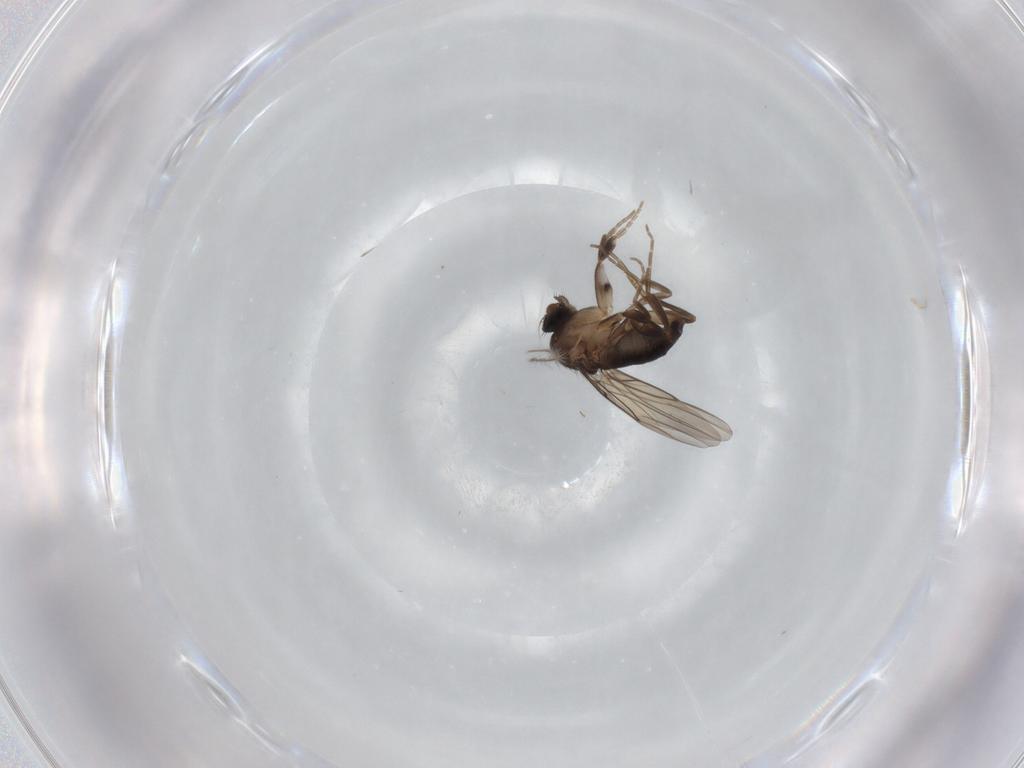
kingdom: Animalia
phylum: Arthropoda
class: Insecta
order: Diptera
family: Phoridae
